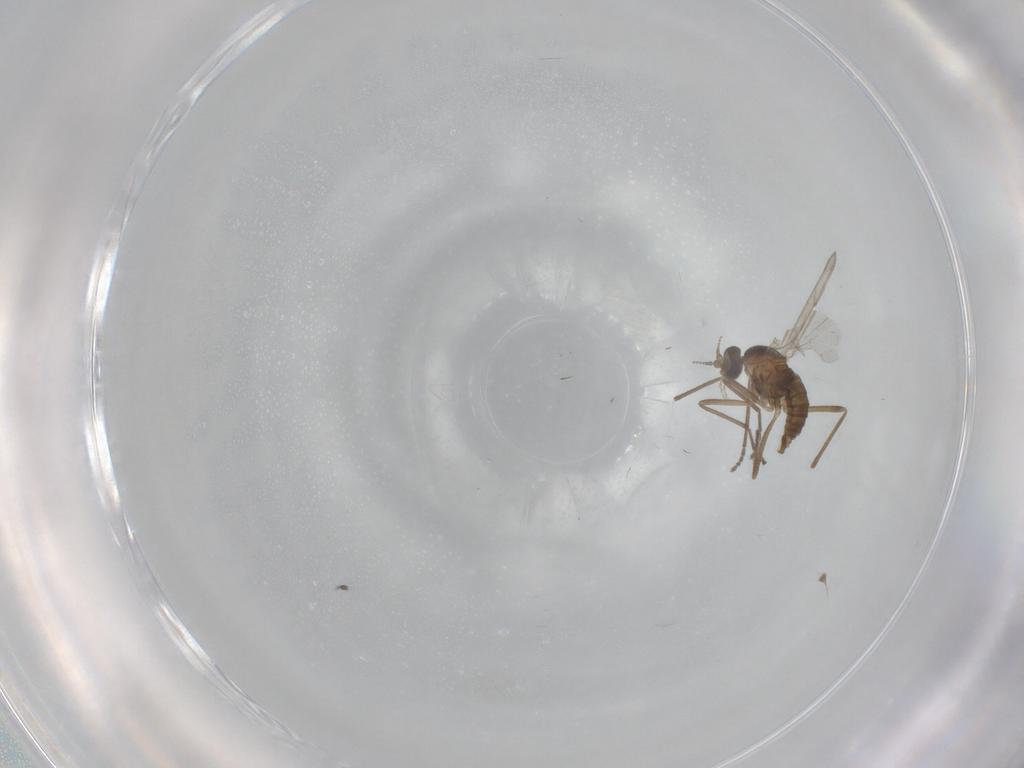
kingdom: Animalia
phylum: Arthropoda
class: Insecta
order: Diptera
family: Cecidomyiidae
